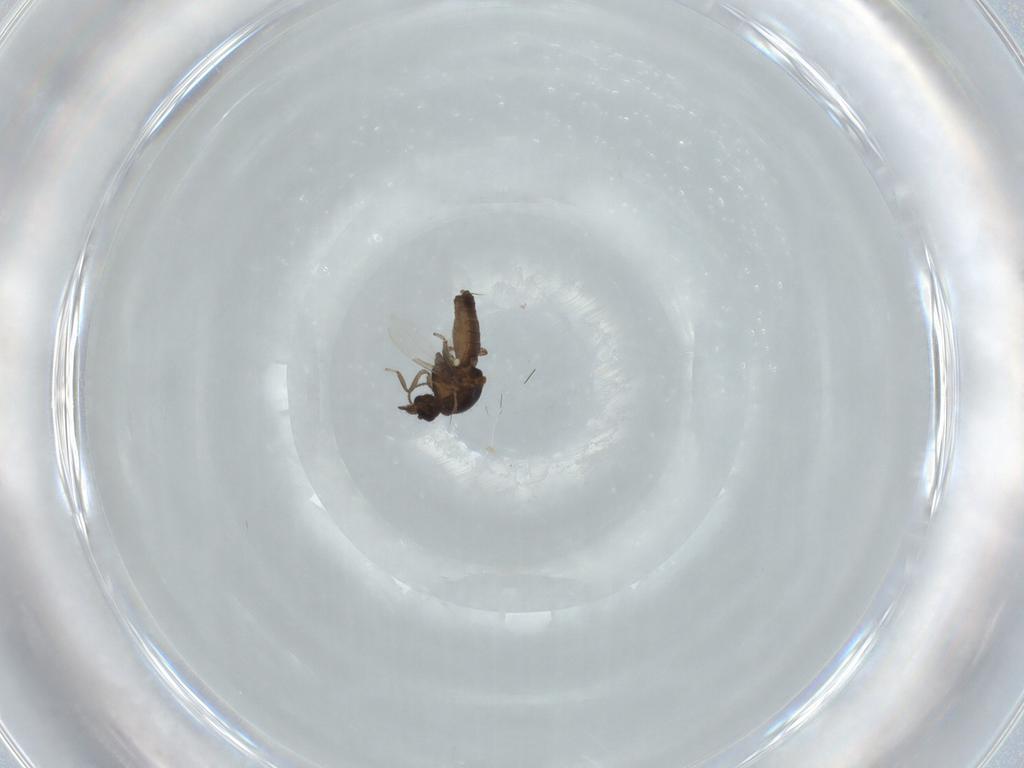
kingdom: Animalia
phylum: Arthropoda
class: Insecta
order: Diptera
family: Ceratopogonidae
